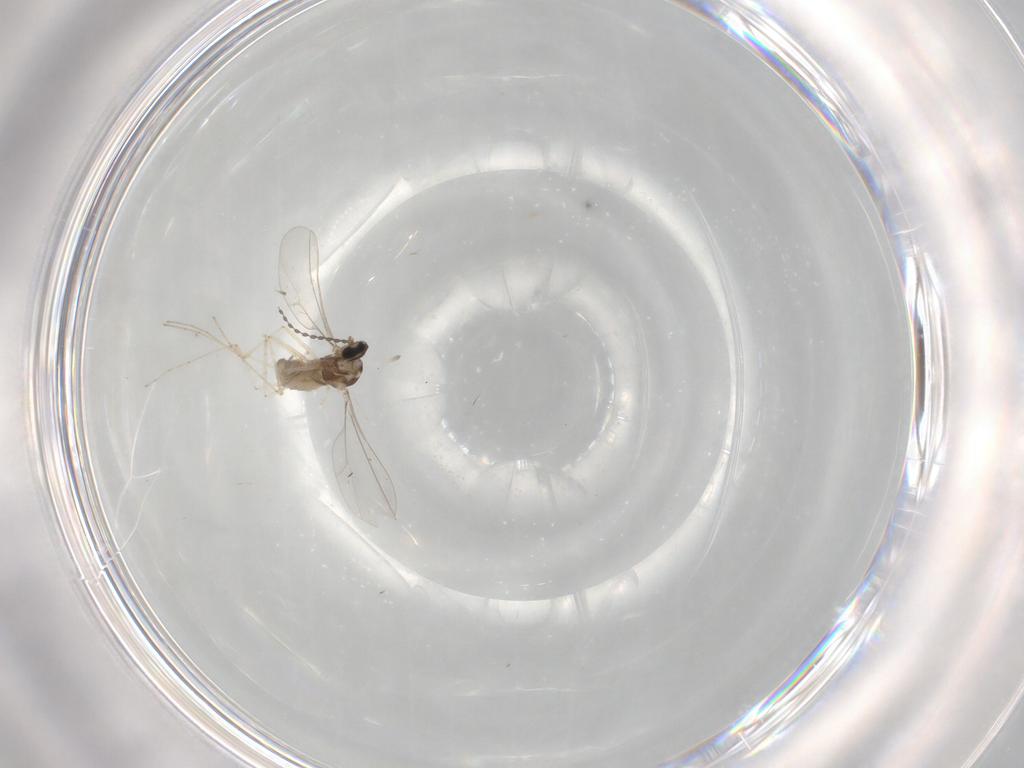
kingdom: Animalia
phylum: Arthropoda
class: Insecta
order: Diptera
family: Cecidomyiidae
